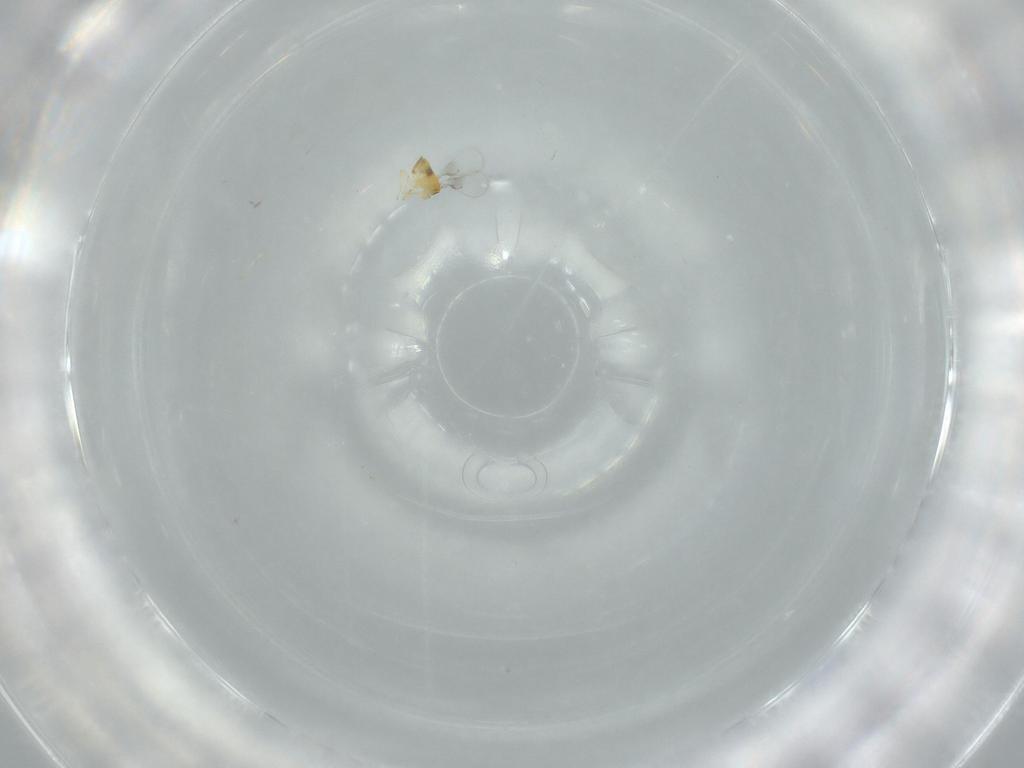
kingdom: Animalia
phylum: Arthropoda
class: Insecta
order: Hymenoptera
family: Trichogrammatidae
